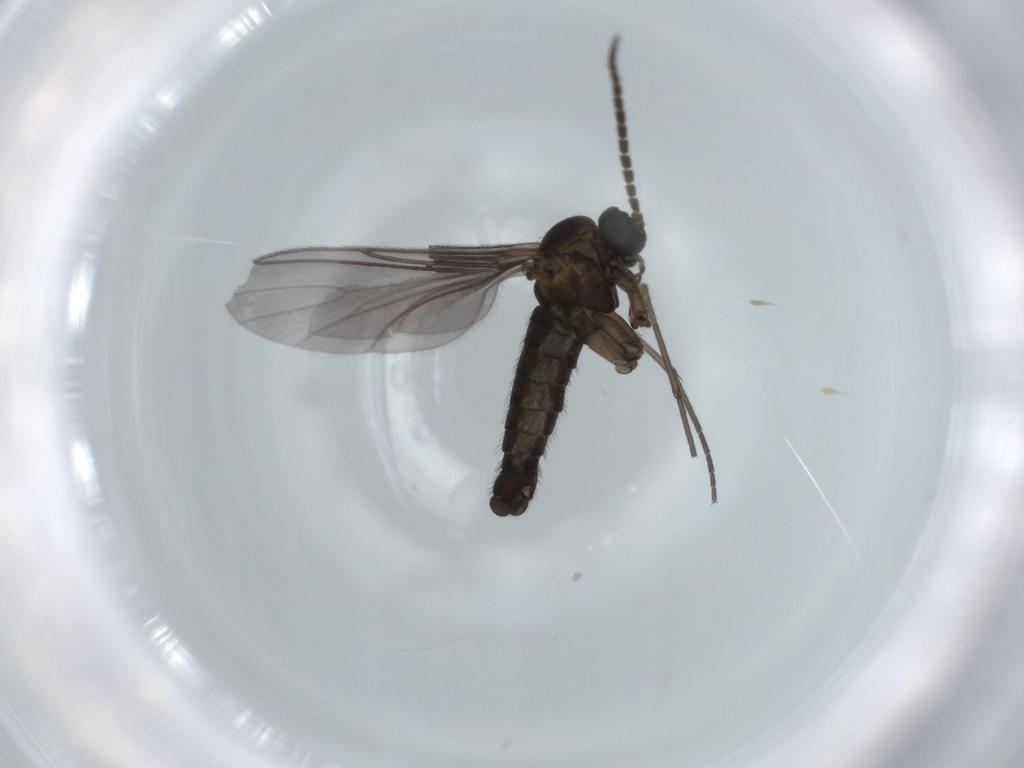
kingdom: Animalia
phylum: Arthropoda
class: Insecta
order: Diptera
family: Sciaridae
